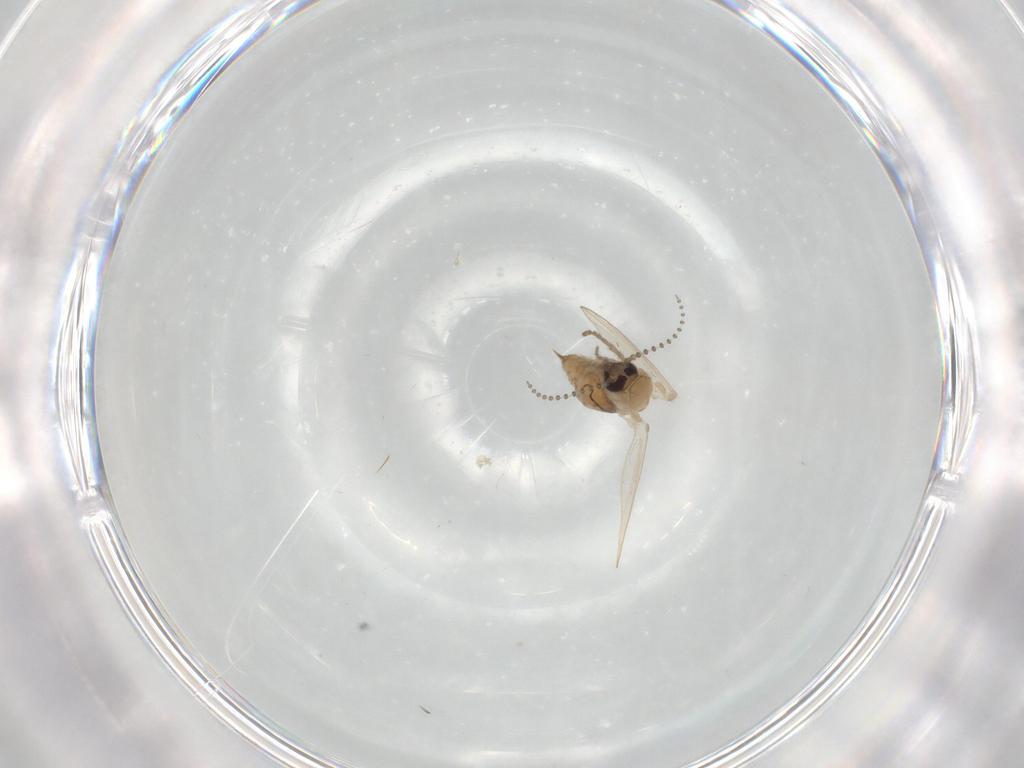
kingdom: Animalia
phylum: Arthropoda
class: Insecta
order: Diptera
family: Psychodidae
